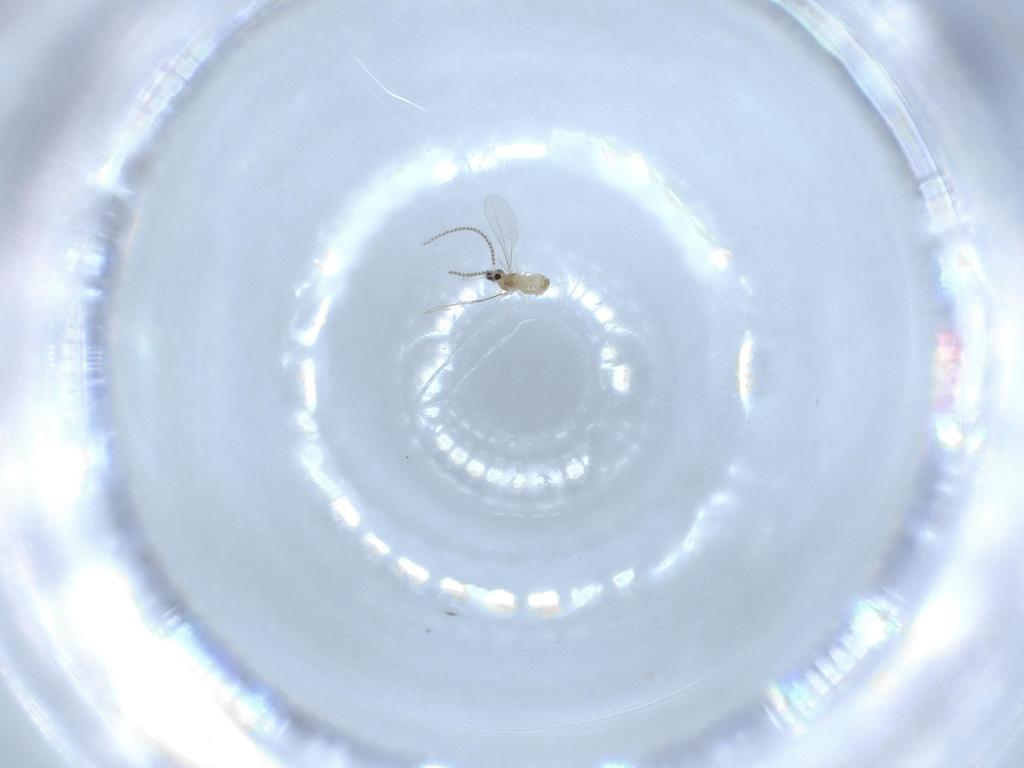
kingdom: Animalia
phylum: Arthropoda
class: Insecta
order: Diptera
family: Cecidomyiidae
